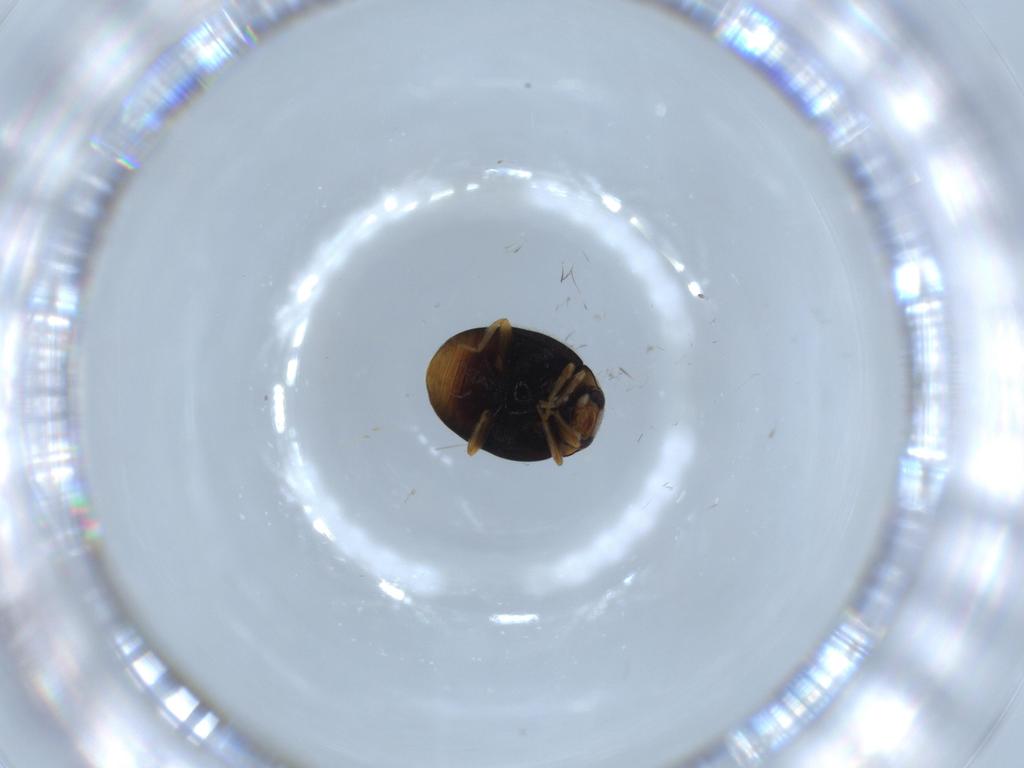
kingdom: Animalia
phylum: Arthropoda
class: Insecta
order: Coleoptera
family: Coccinellidae
